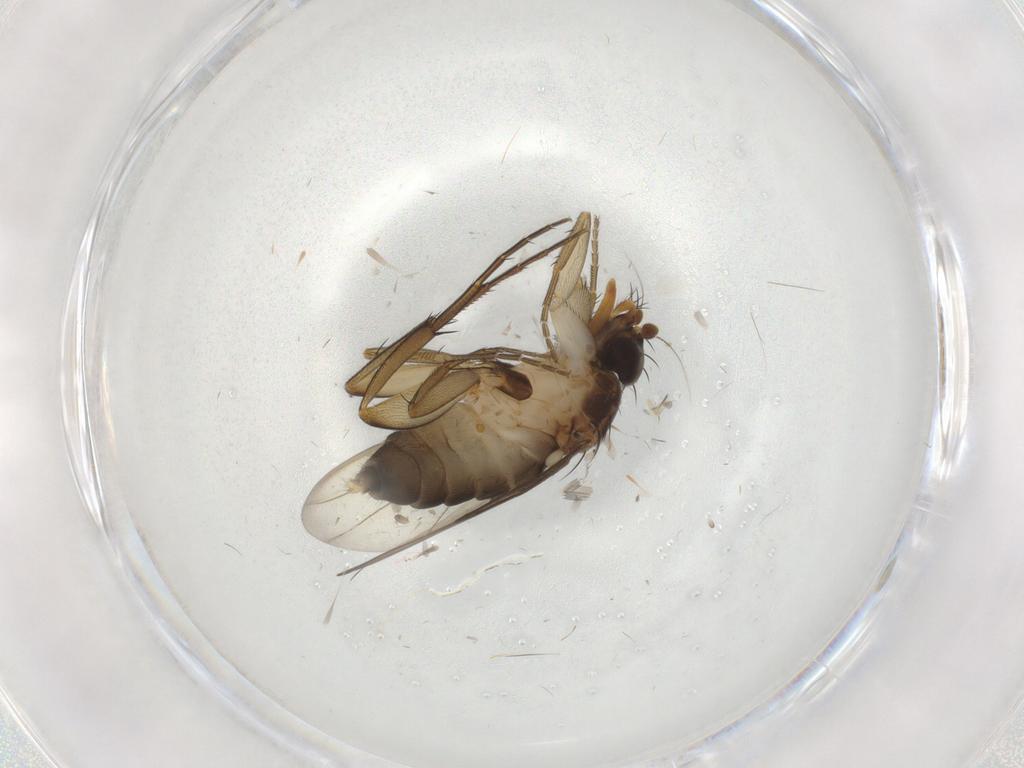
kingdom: Animalia
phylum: Arthropoda
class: Insecta
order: Diptera
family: Cecidomyiidae
